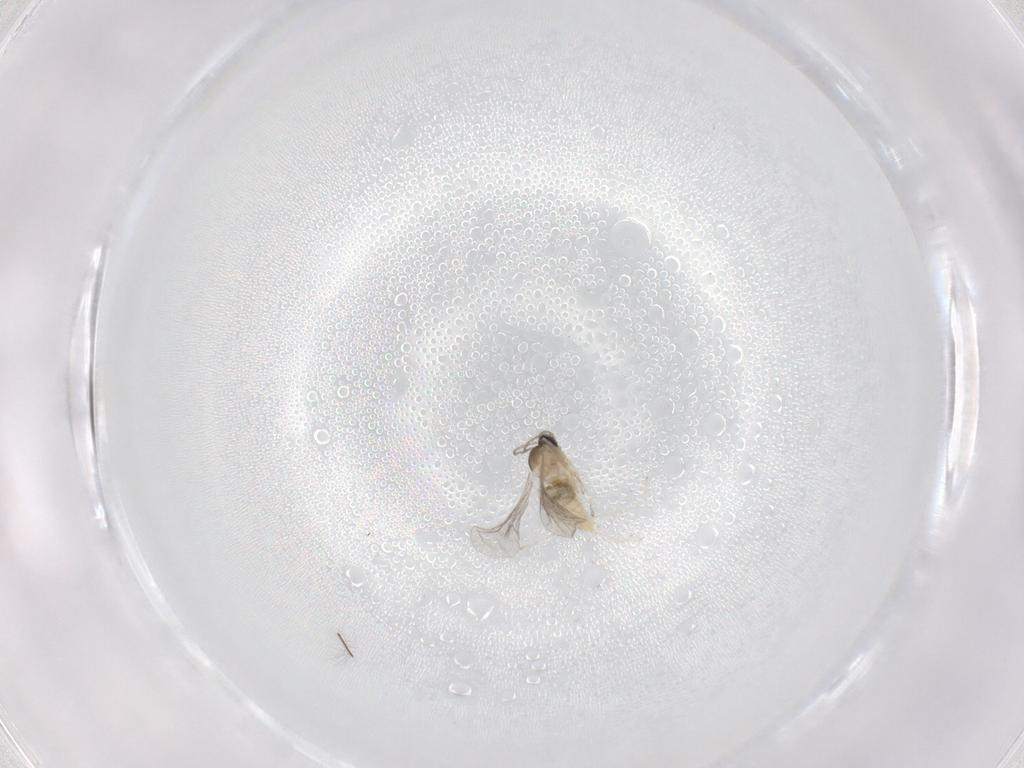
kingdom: Animalia
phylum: Arthropoda
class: Insecta
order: Diptera
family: Cecidomyiidae
